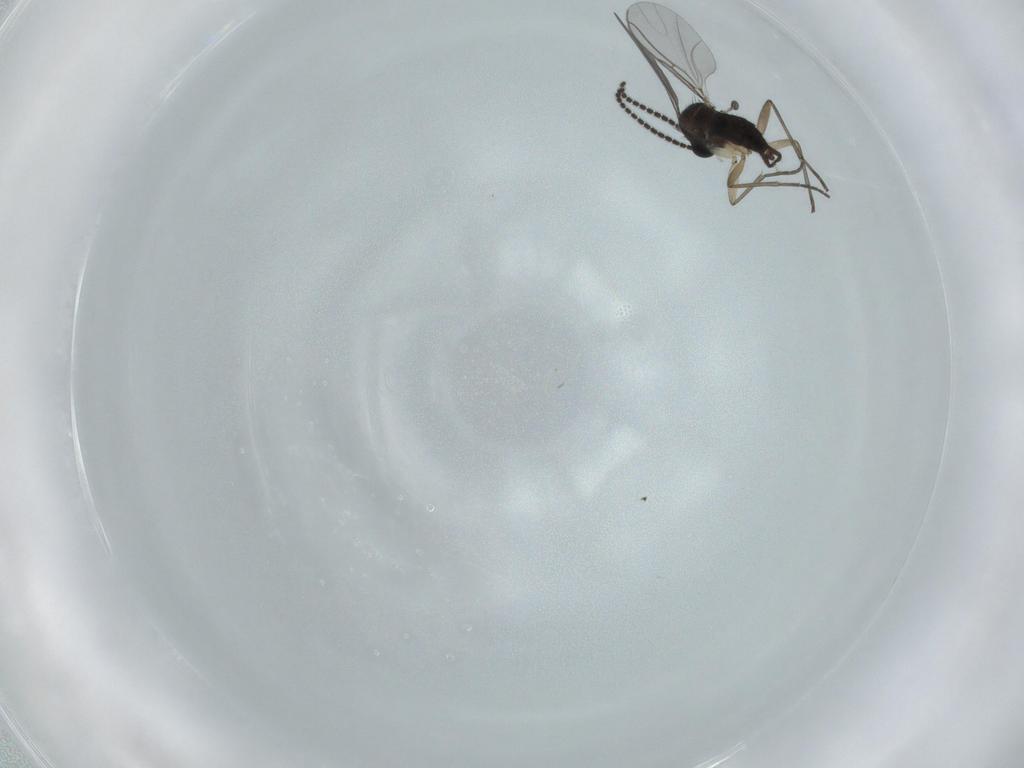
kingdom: Animalia
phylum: Arthropoda
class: Insecta
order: Diptera
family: Sciaridae
